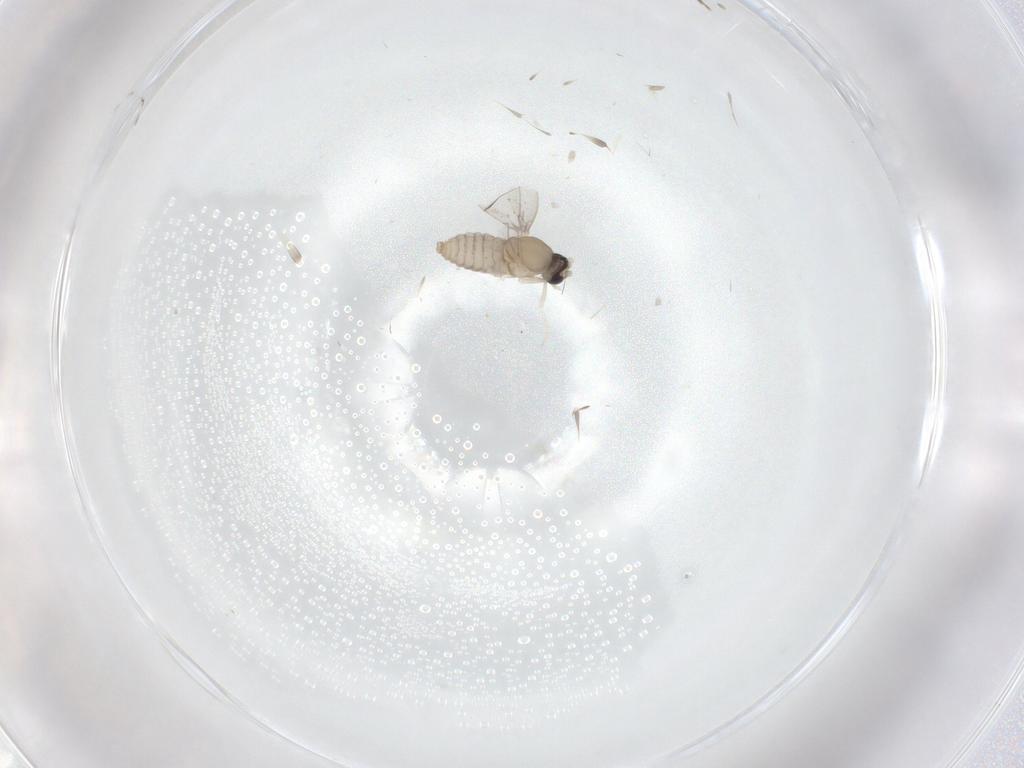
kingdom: Animalia
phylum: Arthropoda
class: Insecta
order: Diptera
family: Cecidomyiidae
